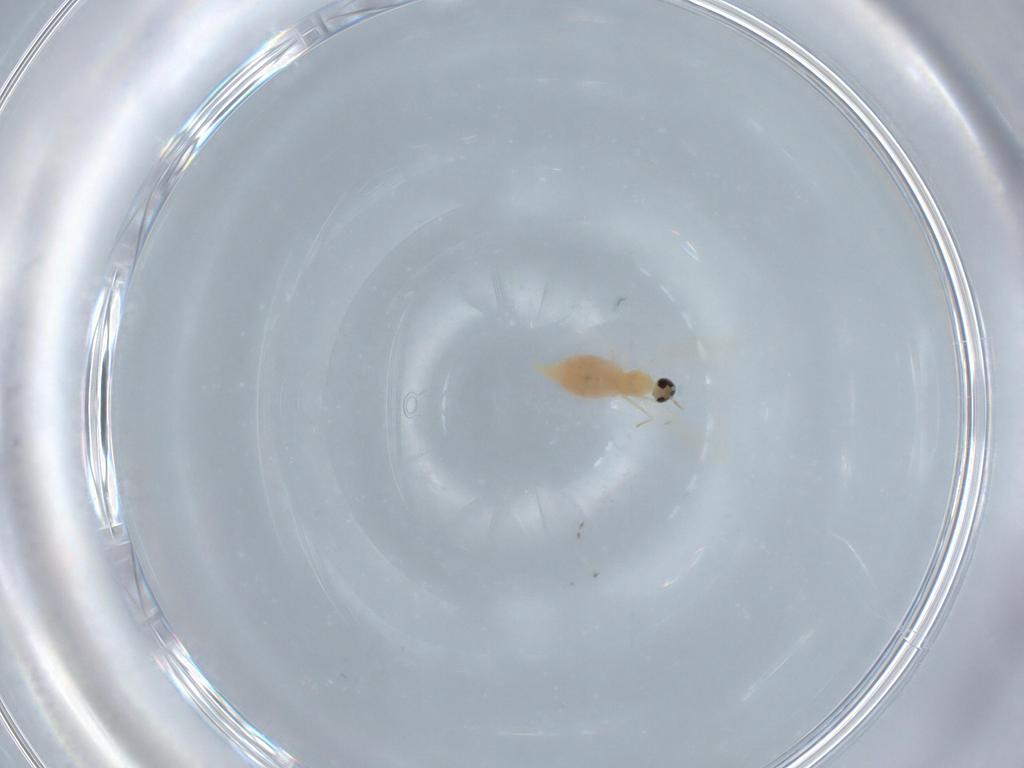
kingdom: Animalia
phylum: Arthropoda
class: Insecta
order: Diptera
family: Cecidomyiidae
